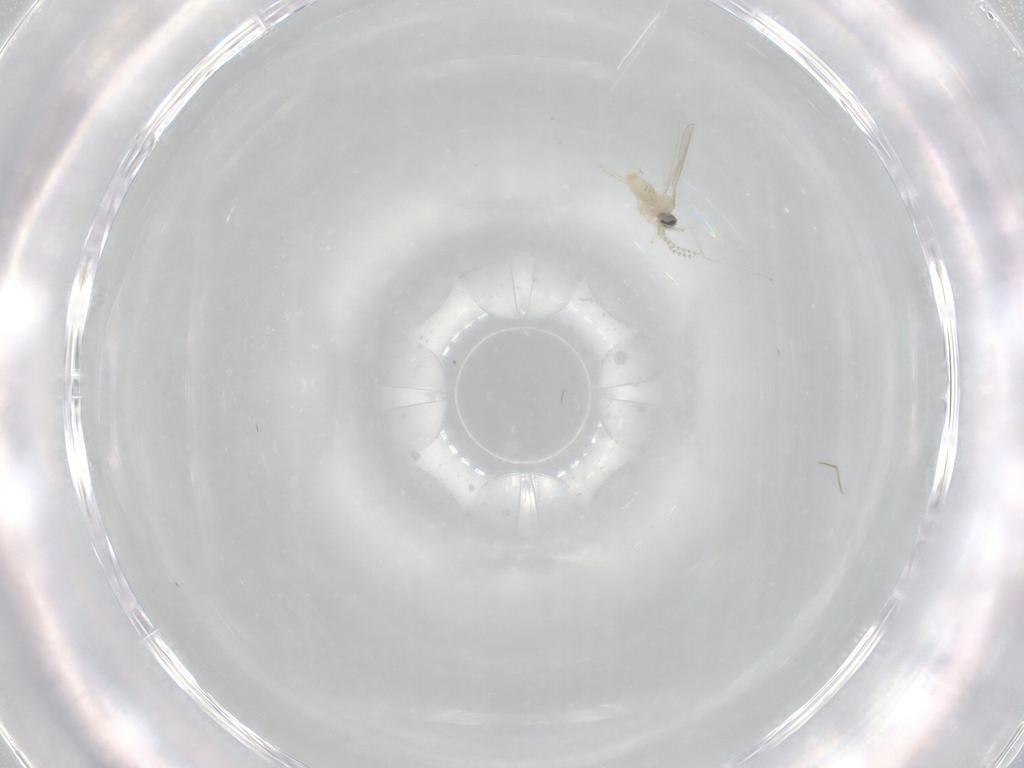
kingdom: Animalia
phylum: Arthropoda
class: Insecta
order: Diptera
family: Cecidomyiidae
